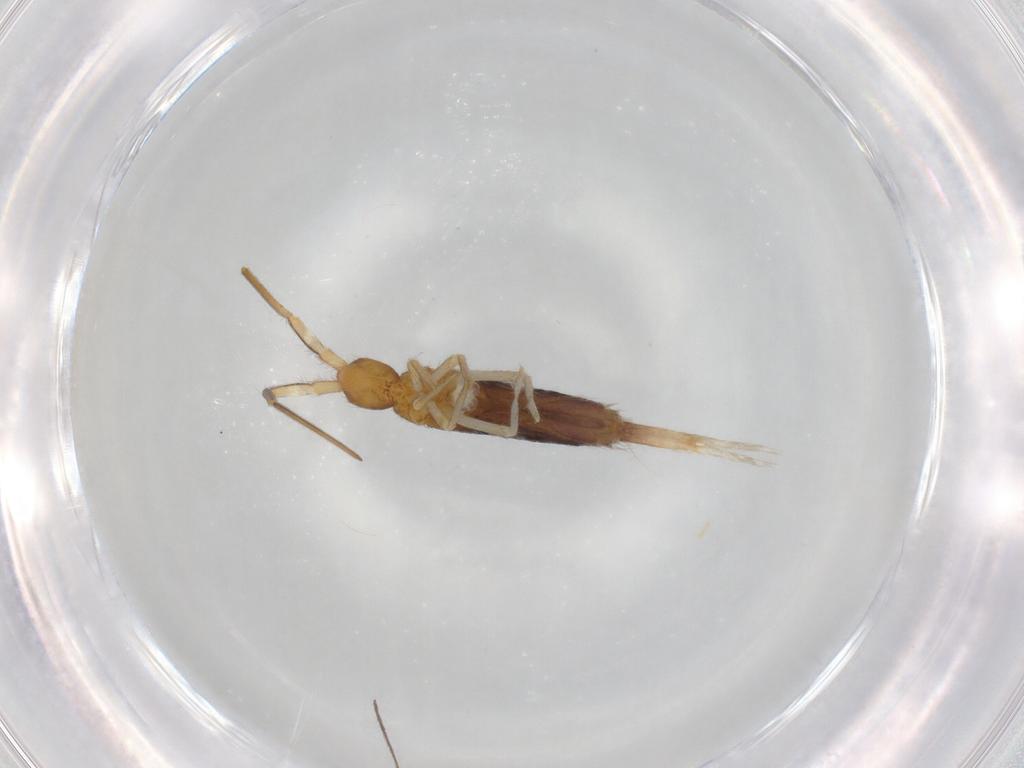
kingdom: Animalia
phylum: Arthropoda
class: Collembola
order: Entomobryomorpha
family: Entomobryidae
